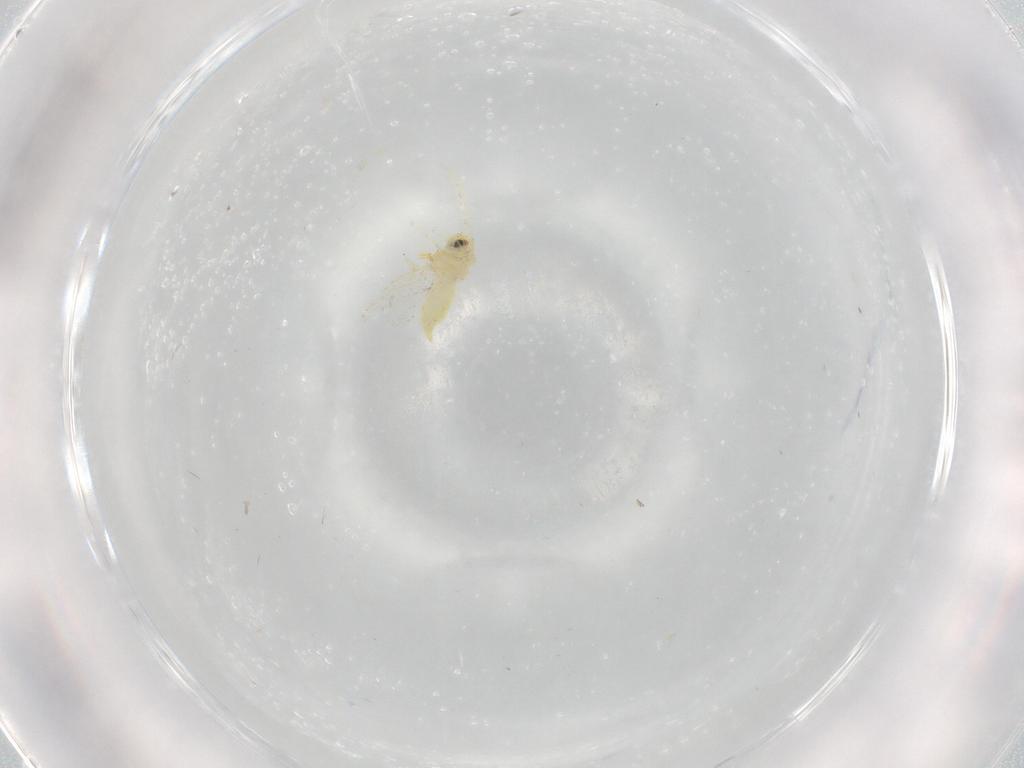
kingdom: Animalia
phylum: Arthropoda
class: Insecta
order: Hemiptera
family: Aleyrodidae
